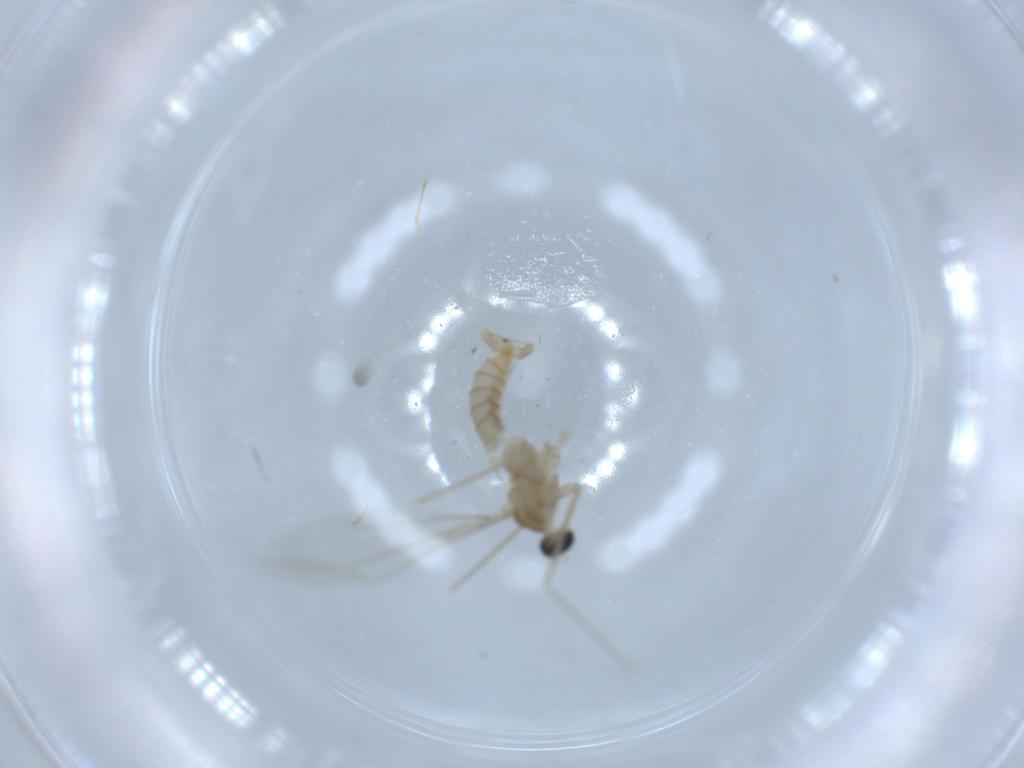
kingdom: Animalia
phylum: Arthropoda
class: Insecta
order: Diptera
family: Cecidomyiidae
